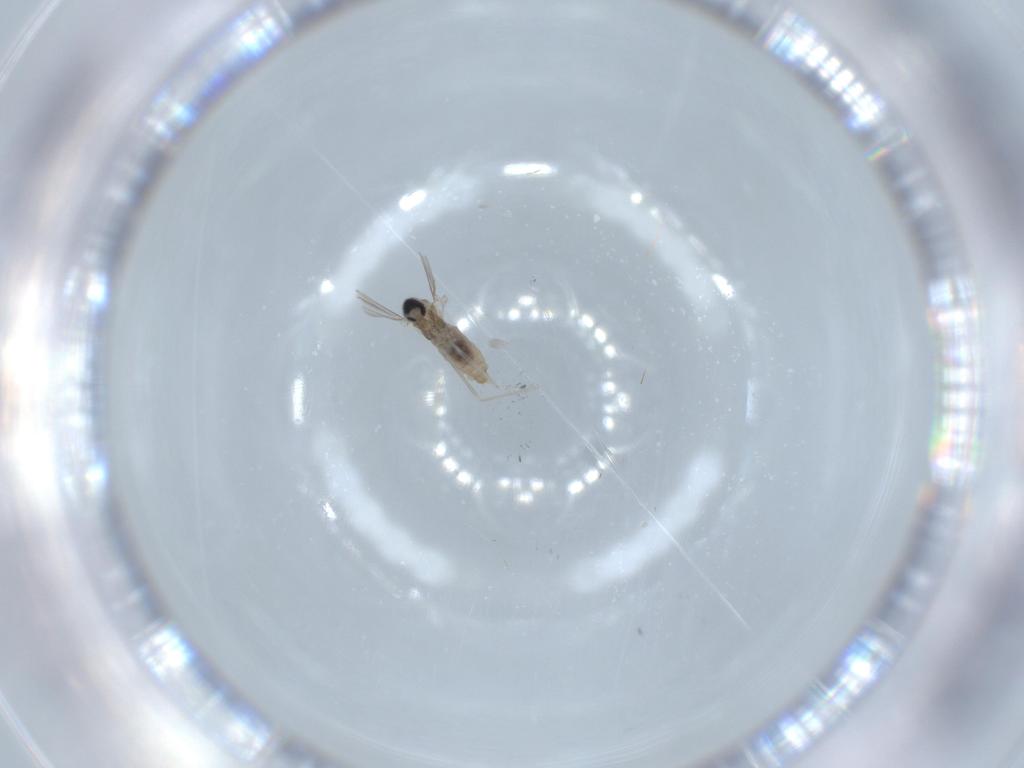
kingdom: Animalia
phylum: Arthropoda
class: Insecta
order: Diptera
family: Cecidomyiidae
